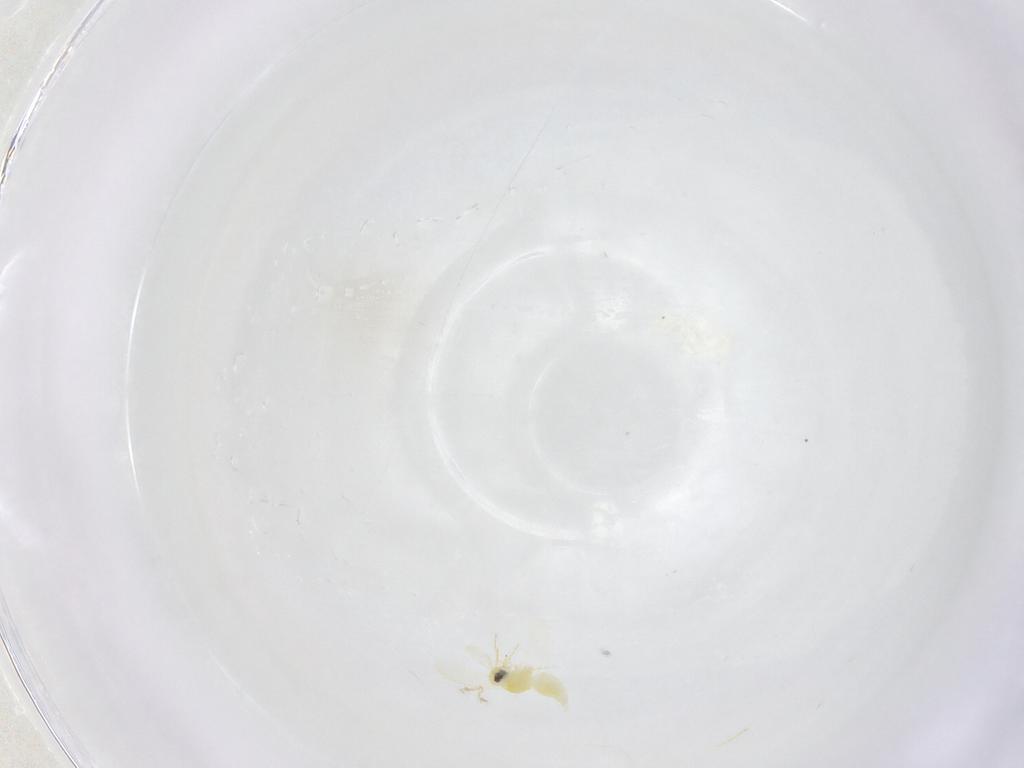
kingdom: Animalia
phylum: Arthropoda
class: Insecta
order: Hemiptera
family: Aleyrodidae
